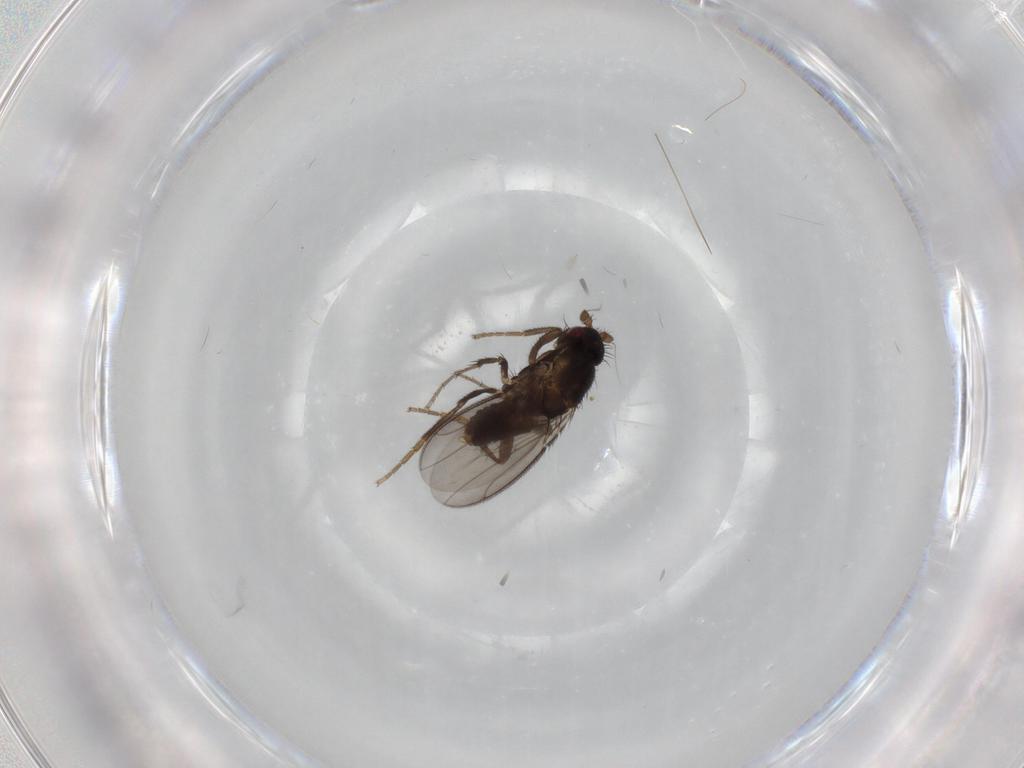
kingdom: Animalia
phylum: Arthropoda
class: Insecta
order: Diptera
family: Sphaeroceridae
